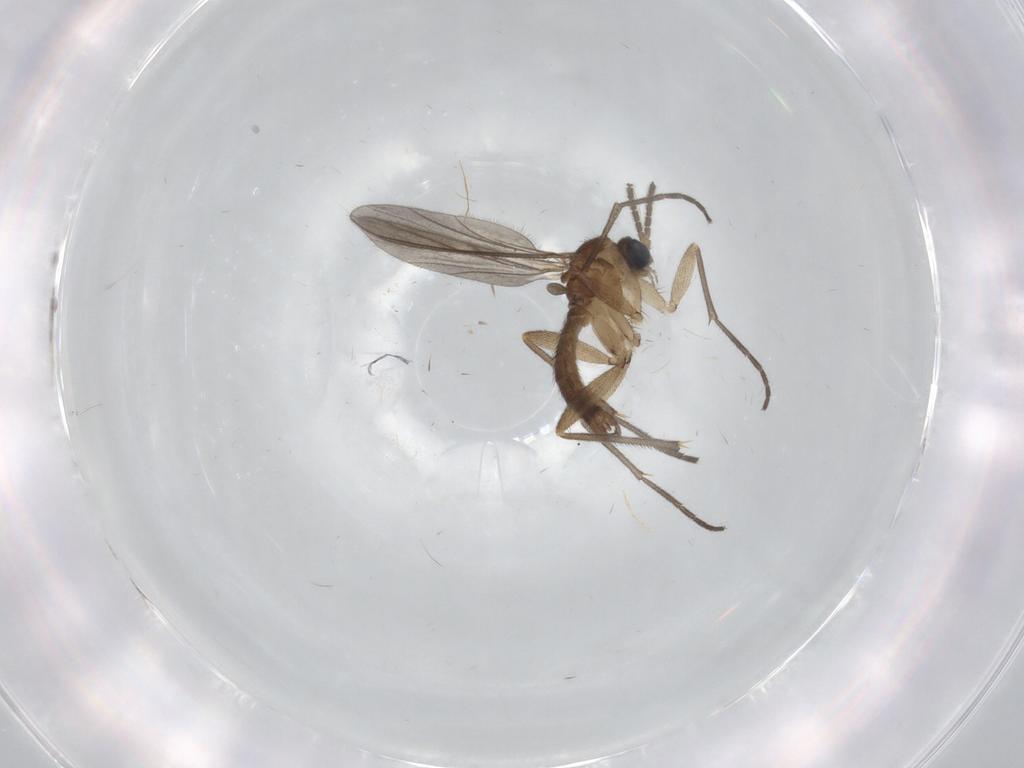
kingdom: Animalia
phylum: Arthropoda
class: Insecta
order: Diptera
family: Sciaridae
